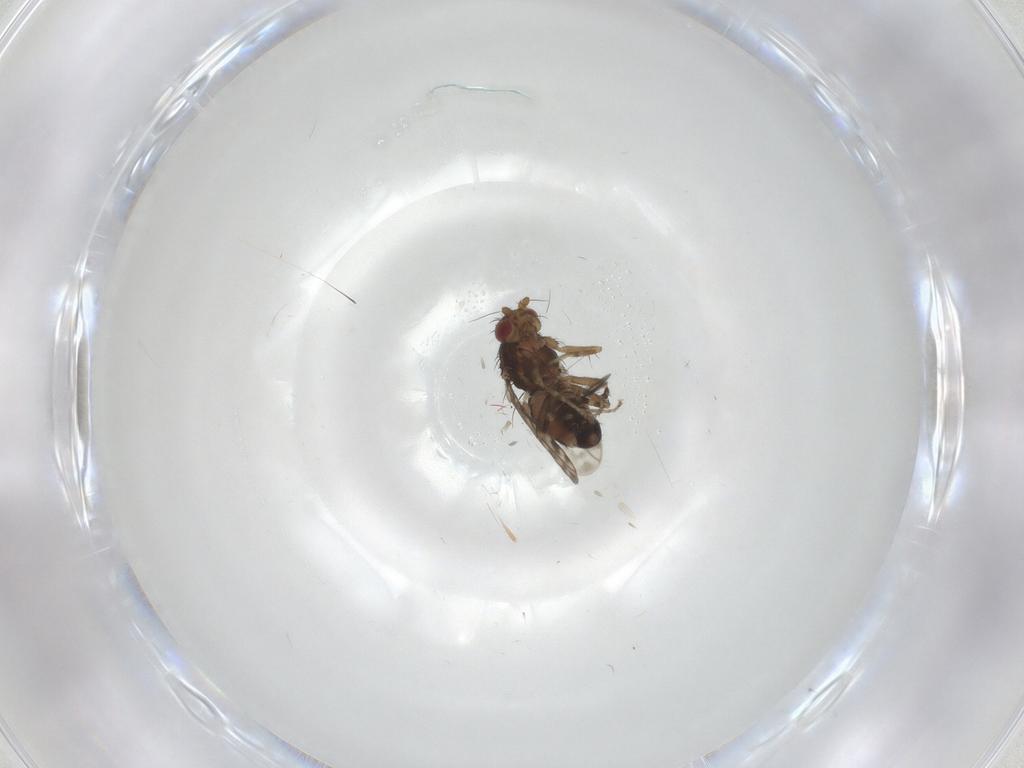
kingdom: Animalia
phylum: Arthropoda
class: Insecta
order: Diptera
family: Sphaeroceridae
